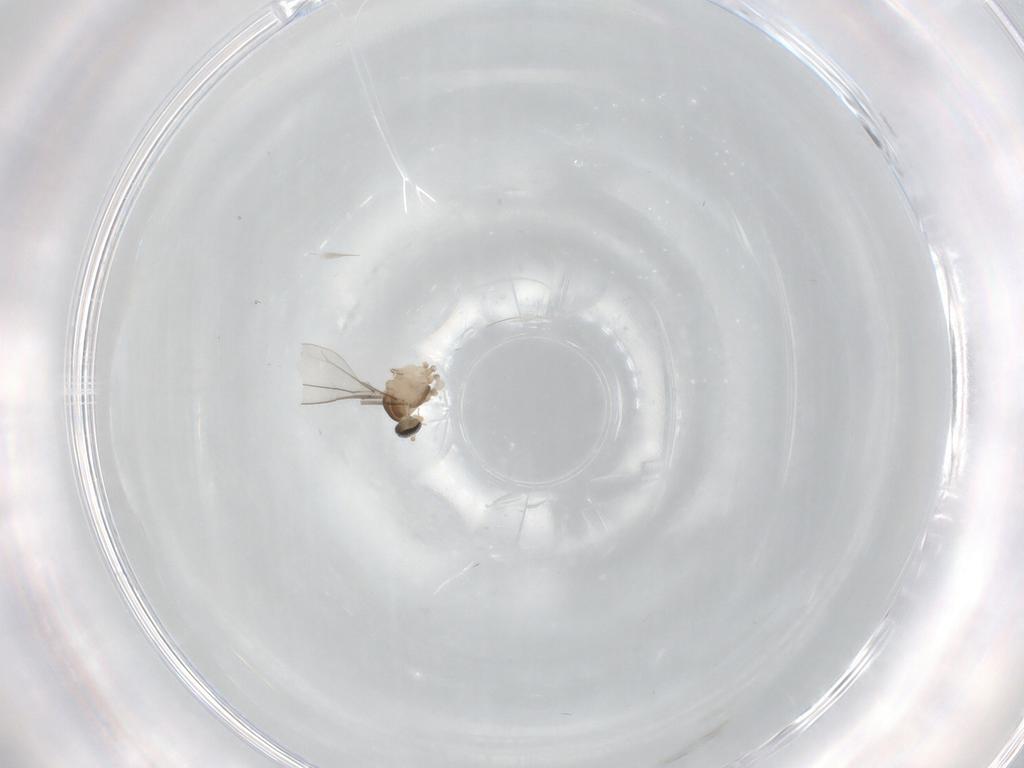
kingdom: Animalia
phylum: Arthropoda
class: Insecta
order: Diptera
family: Cecidomyiidae
